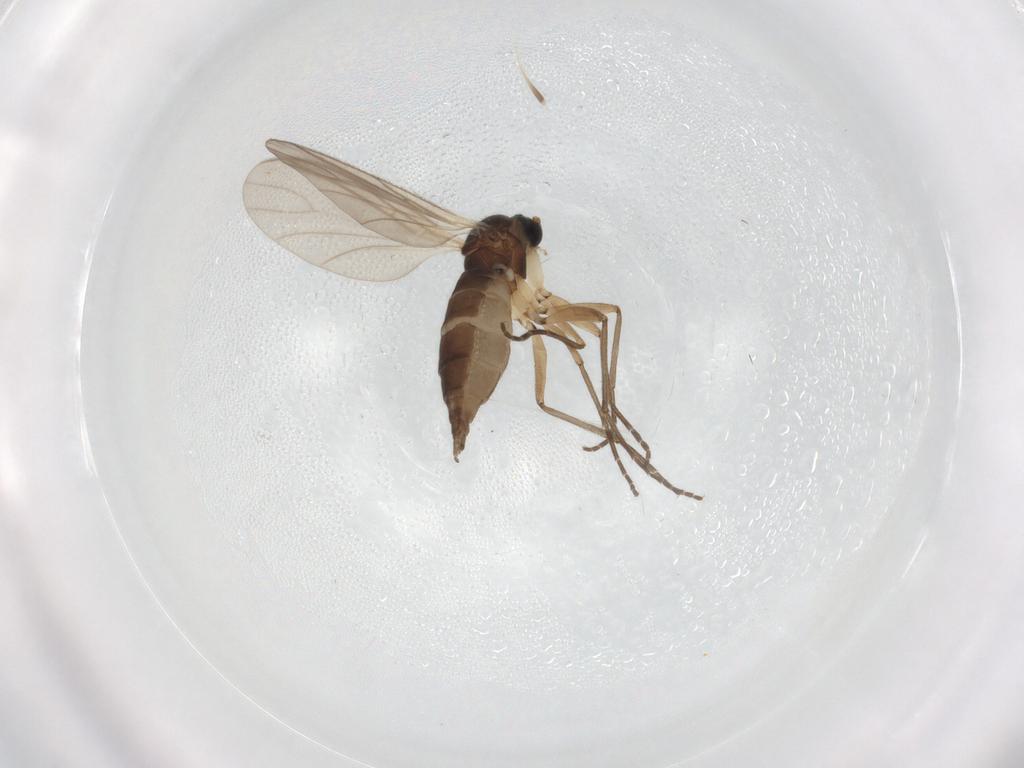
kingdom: Animalia
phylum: Arthropoda
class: Insecta
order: Diptera
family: Sciaridae
